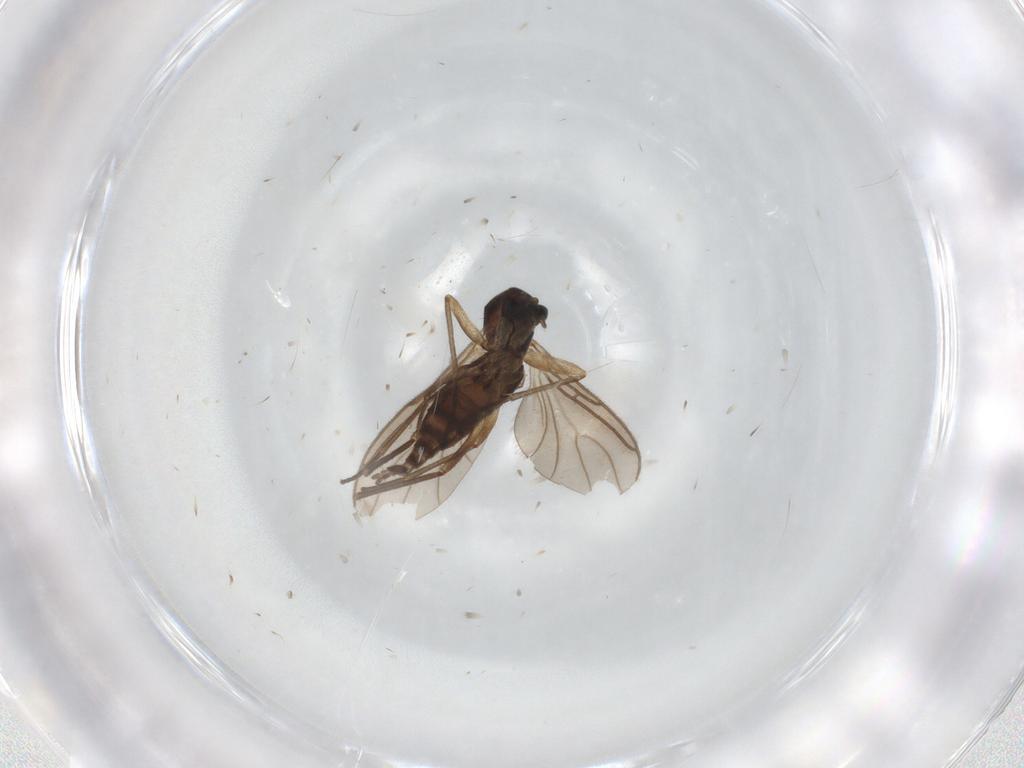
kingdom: Animalia
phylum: Arthropoda
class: Insecta
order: Diptera
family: Sciaridae
